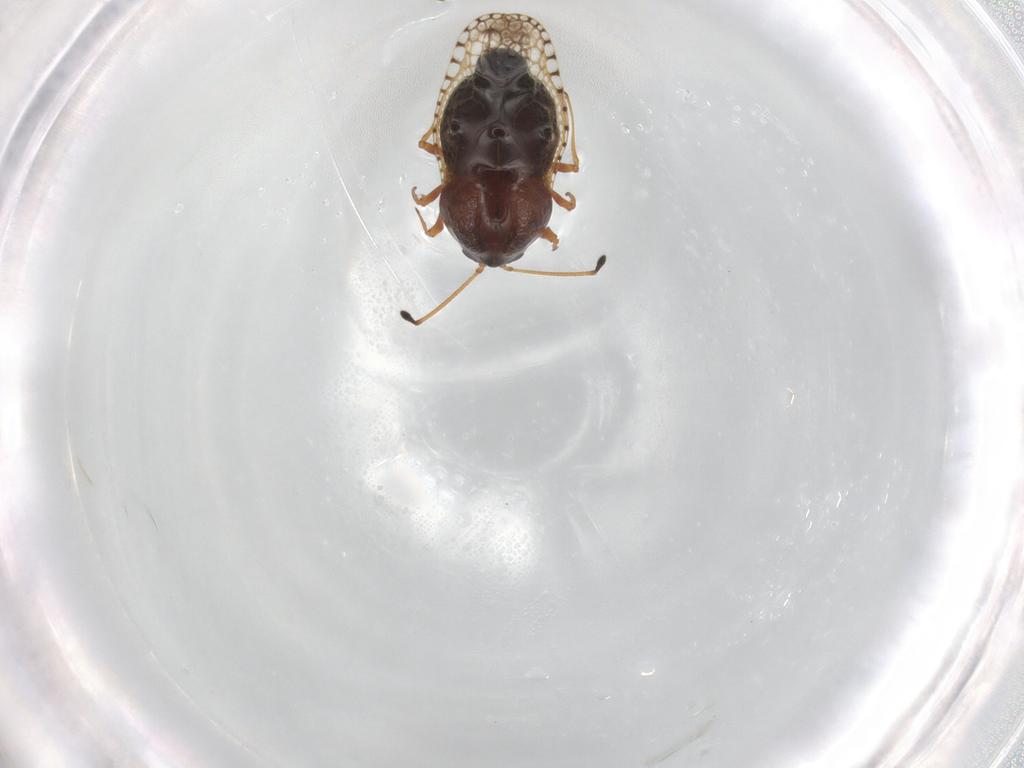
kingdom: Animalia
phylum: Arthropoda
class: Insecta
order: Hemiptera
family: Tingidae
